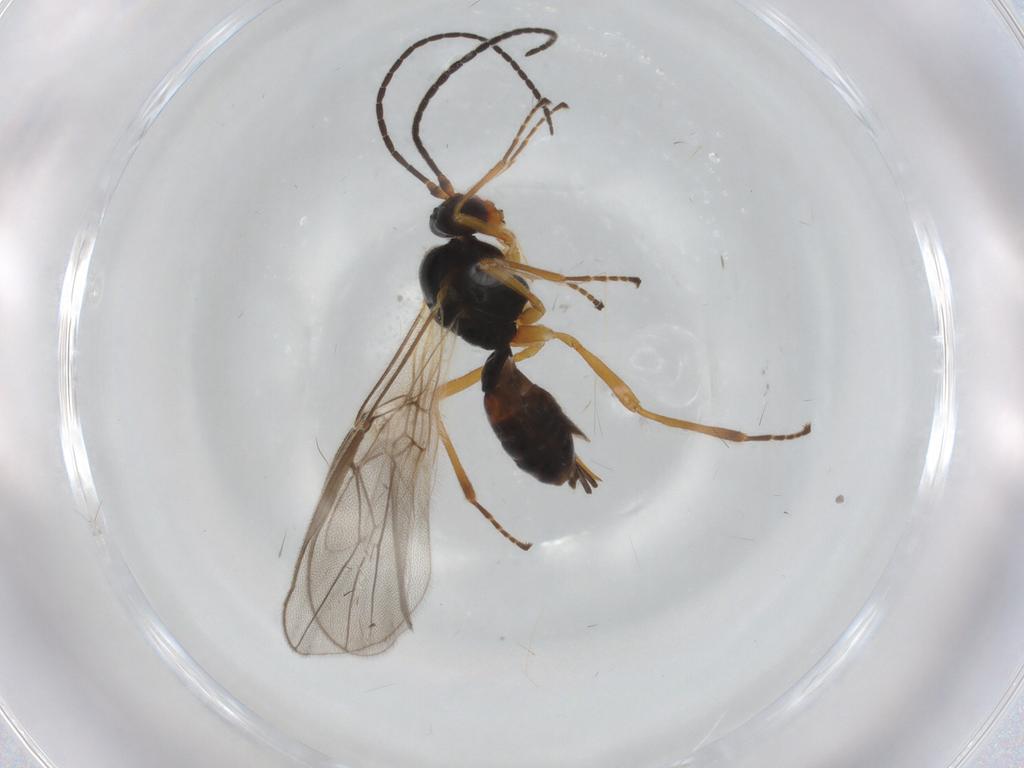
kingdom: Animalia
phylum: Arthropoda
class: Insecta
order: Hymenoptera
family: Braconidae
